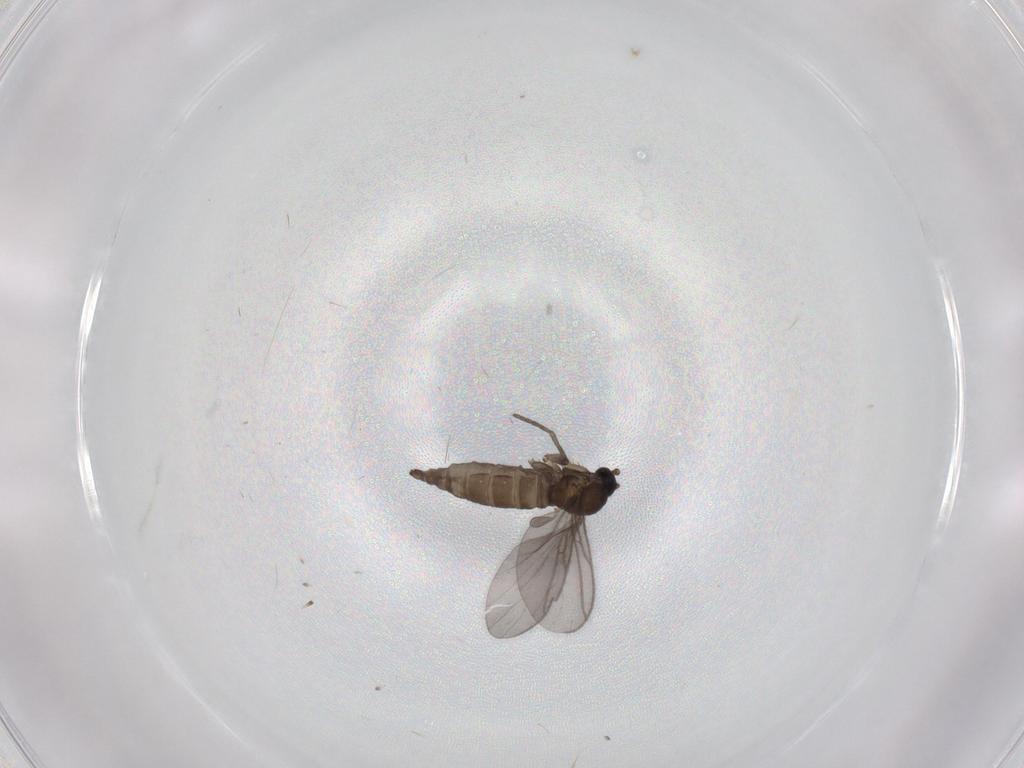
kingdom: Animalia
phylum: Arthropoda
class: Insecta
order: Diptera
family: Sciaridae
